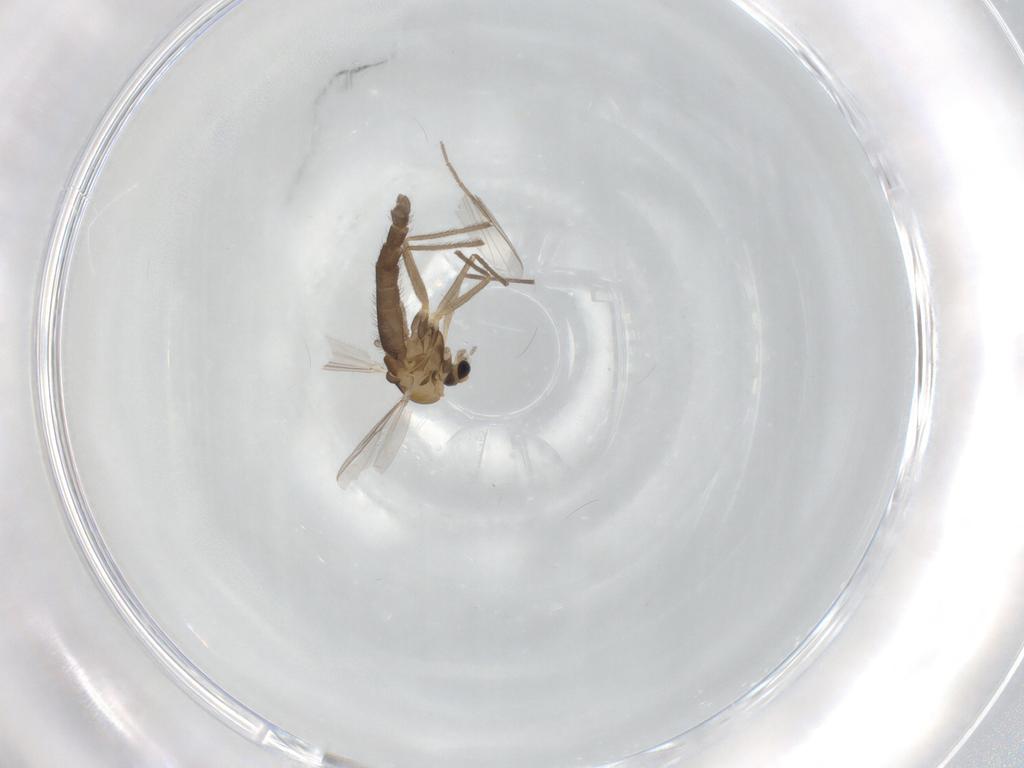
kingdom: Animalia
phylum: Arthropoda
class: Insecta
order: Diptera
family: Chironomidae
